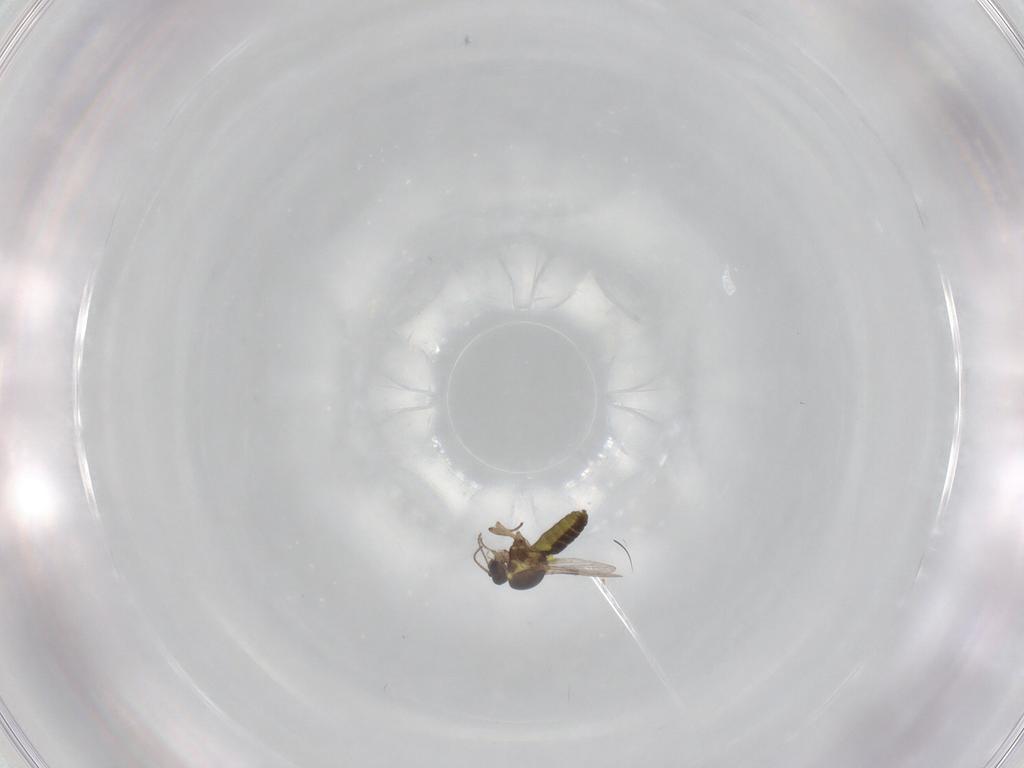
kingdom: Animalia
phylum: Arthropoda
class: Insecta
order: Diptera
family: Ceratopogonidae
